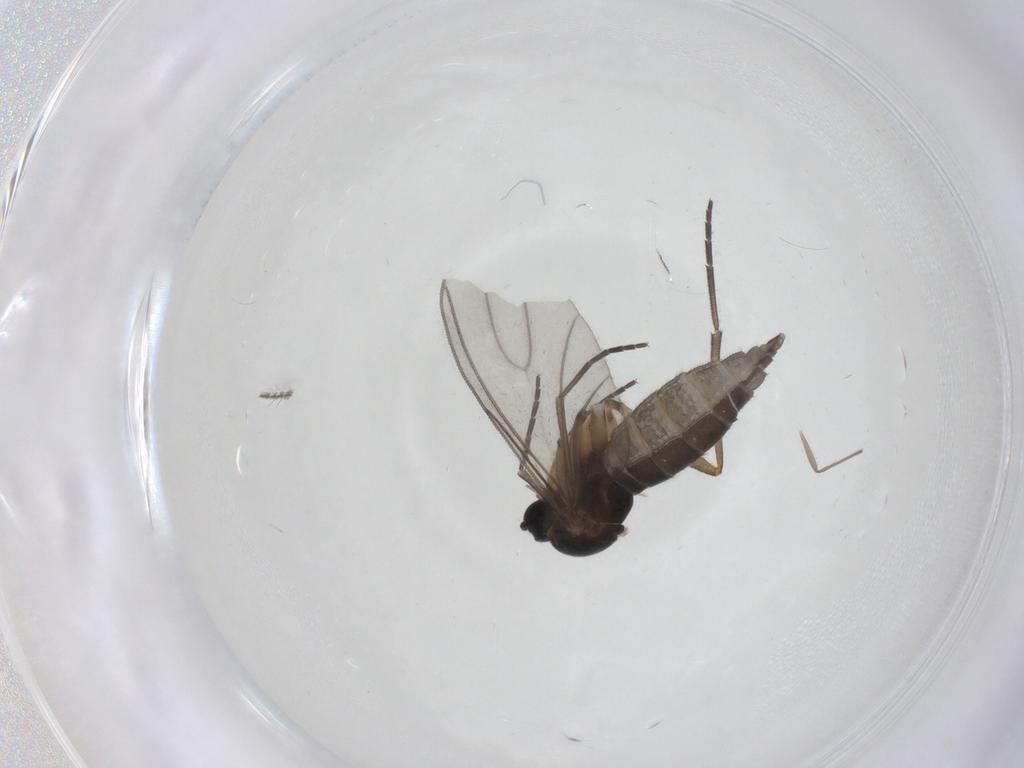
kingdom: Animalia
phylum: Arthropoda
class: Insecta
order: Diptera
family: Sciaridae
